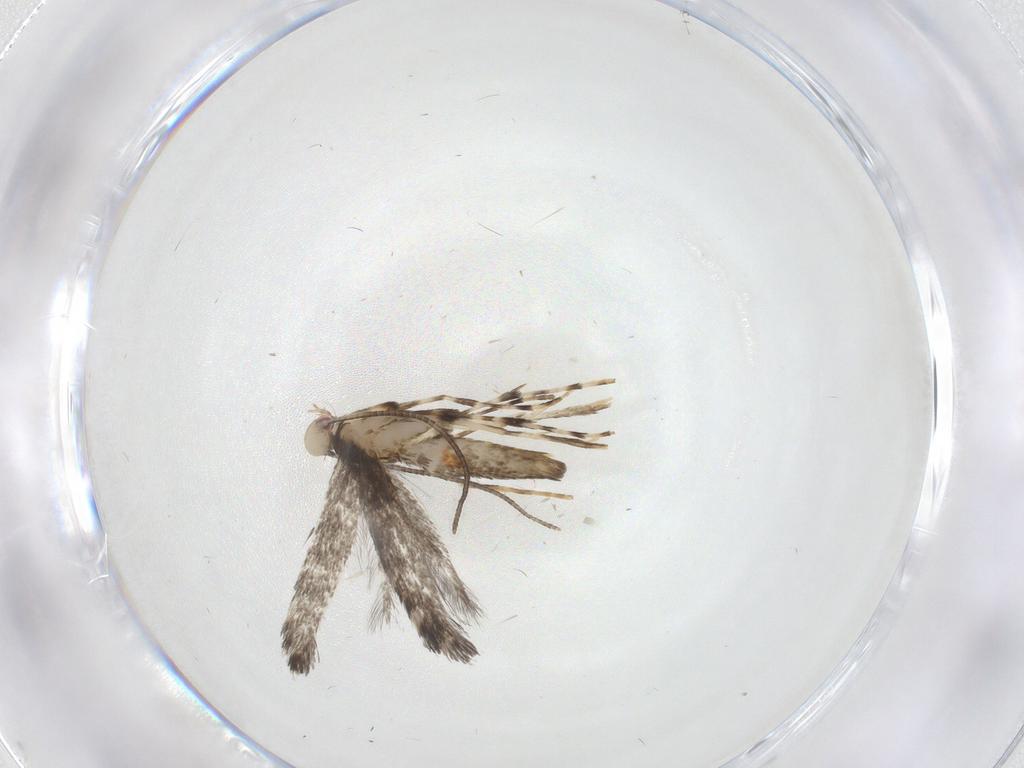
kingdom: Animalia
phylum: Arthropoda
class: Insecta
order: Lepidoptera
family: Gracillariidae
